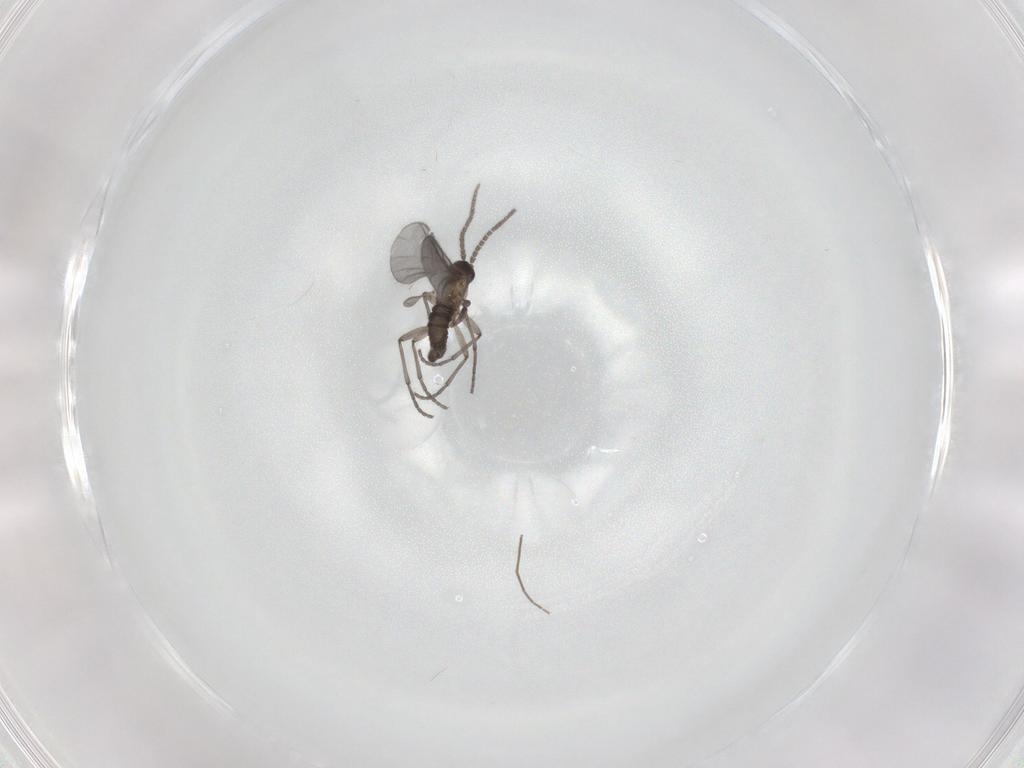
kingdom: Animalia
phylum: Arthropoda
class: Insecta
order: Diptera
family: Sciaridae
